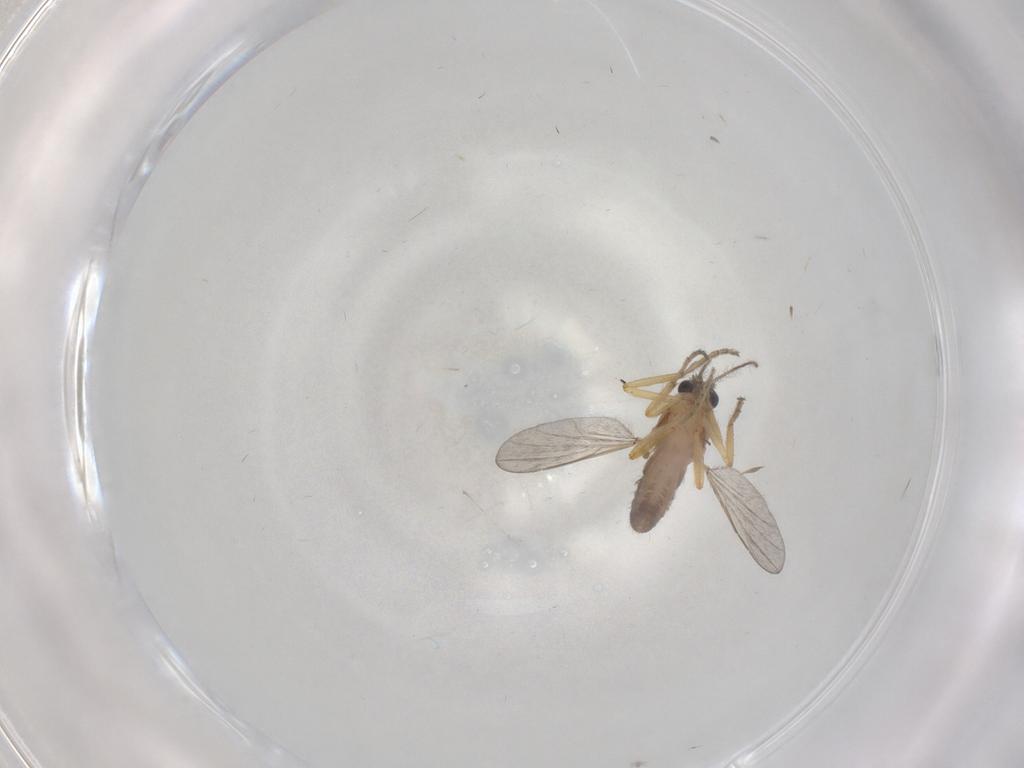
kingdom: Animalia
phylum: Arthropoda
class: Insecta
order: Diptera
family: Ceratopogonidae
